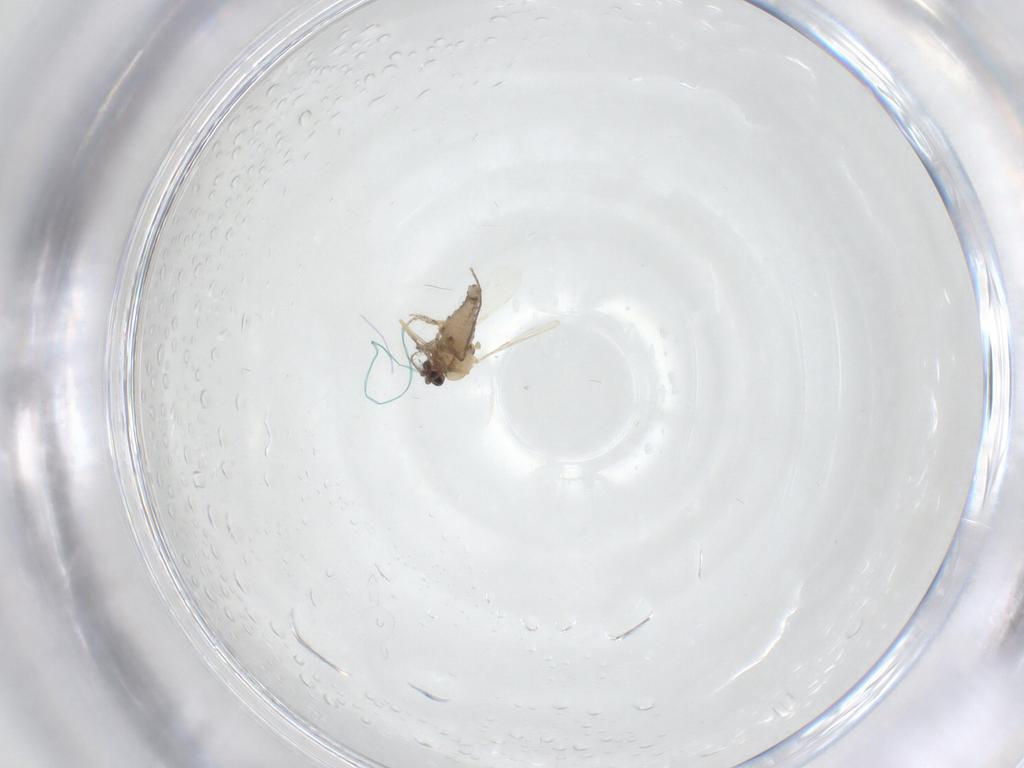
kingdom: Animalia
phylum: Arthropoda
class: Insecta
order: Diptera
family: Ceratopogonidae
